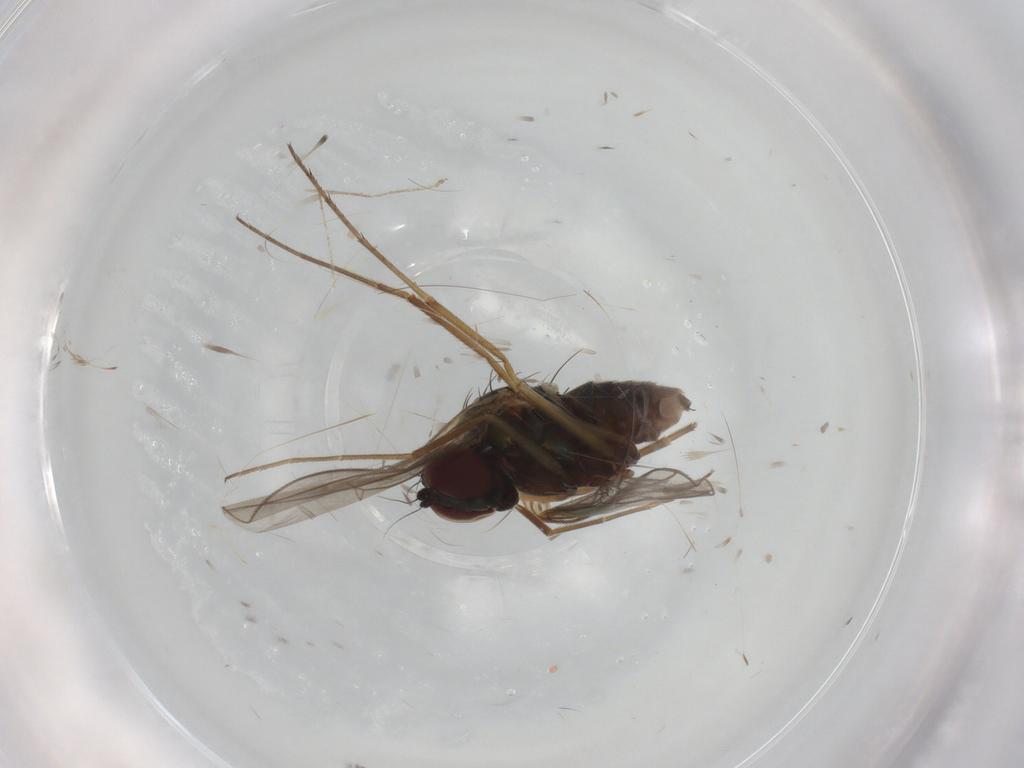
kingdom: Animalia
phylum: Arthropoda
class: Insecta
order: Diptera
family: Dolichopodidae
